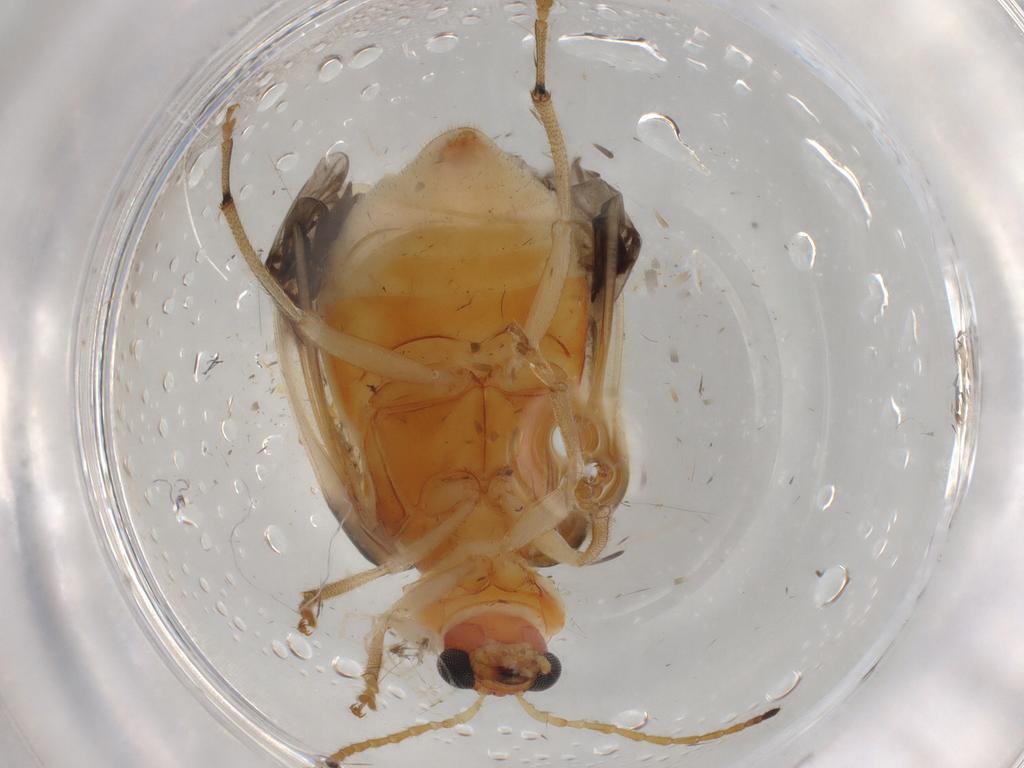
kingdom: Animalia
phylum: Arthropoda
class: Insecta
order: Coleoptera
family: Chrysomelidae
